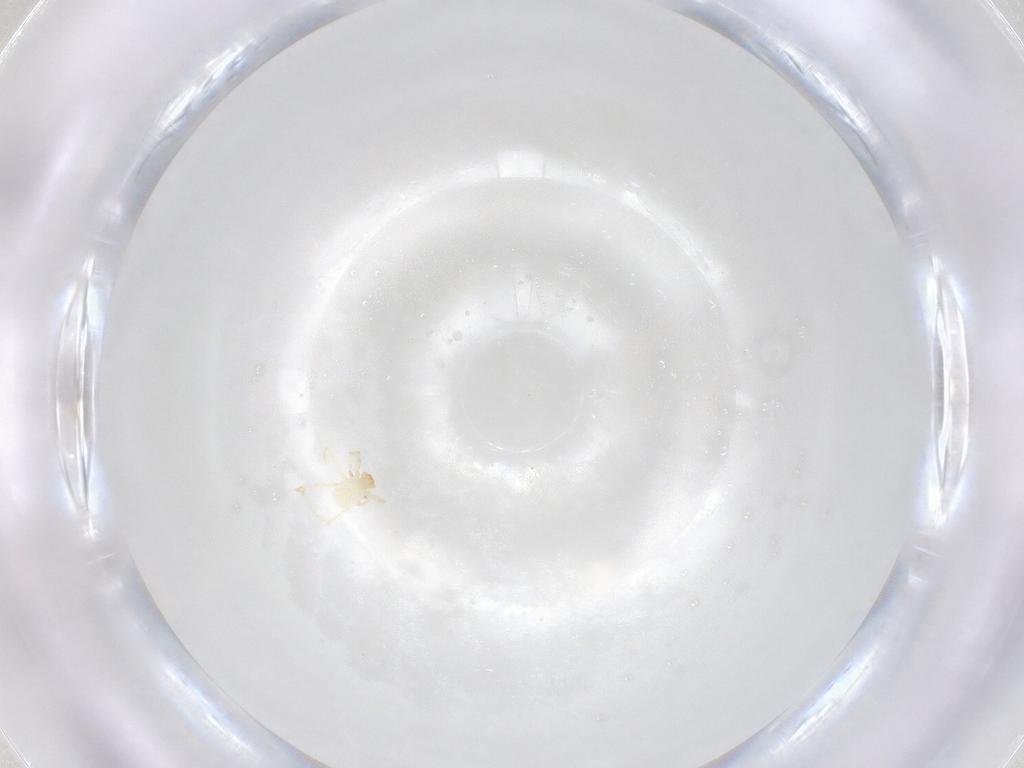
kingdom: Animalia
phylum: Arthropoda
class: Arachnida
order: Trombidiformes
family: Erythraeidae
